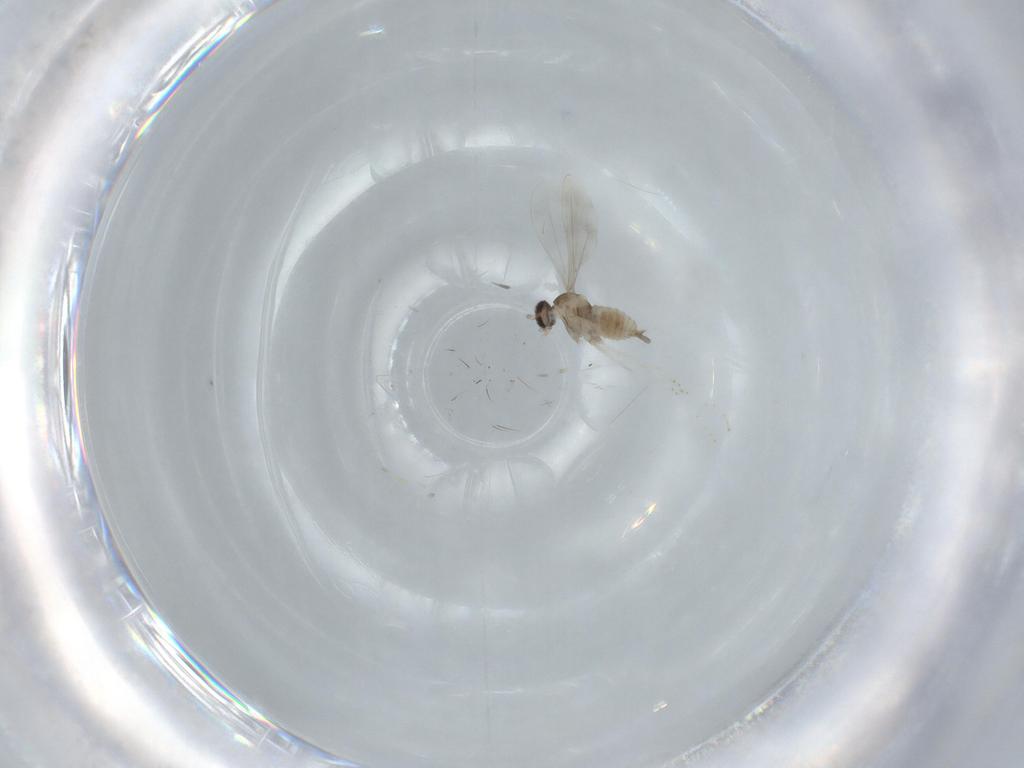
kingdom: Animalia
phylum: Arthropoda
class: Insecta
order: Diptera
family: Cecidomyiidae
